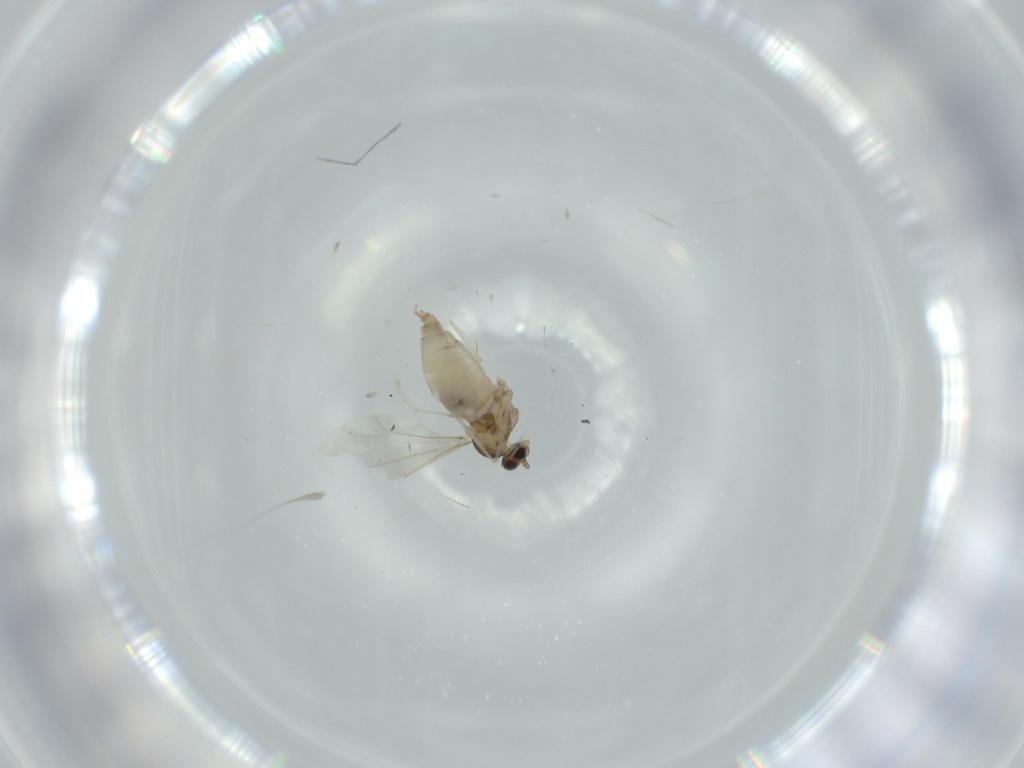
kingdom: Animalia
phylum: Arthropoda
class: Insecta
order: Diptera
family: Cecidomyiidae
